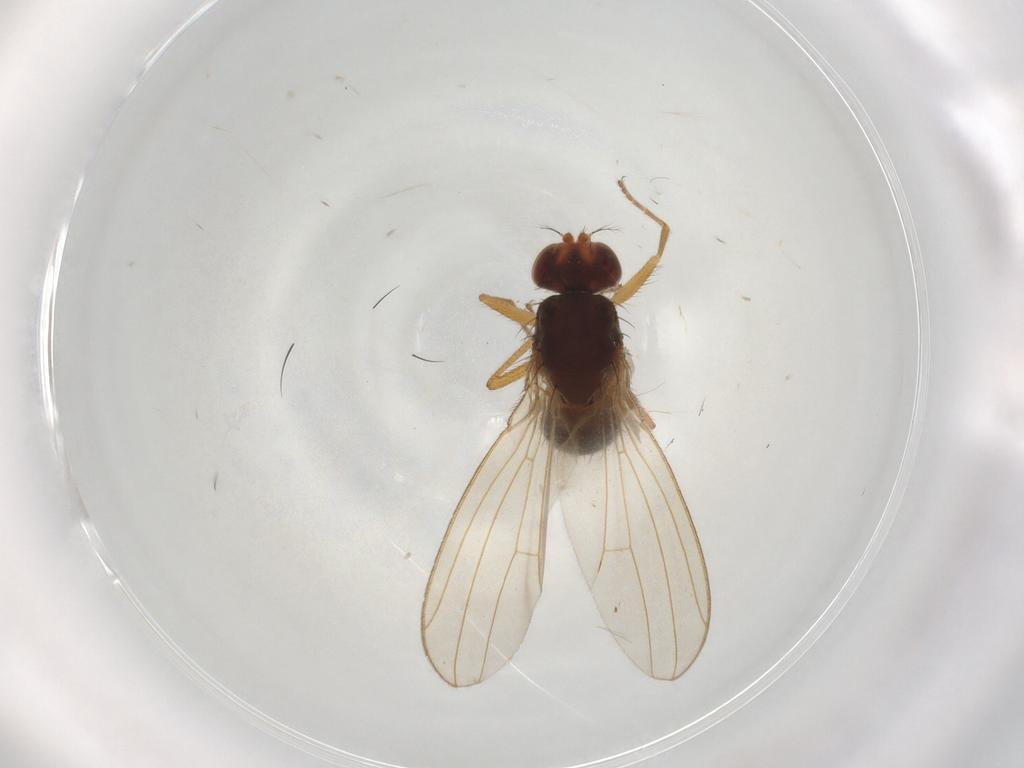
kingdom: Animalia
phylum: Arthropoda
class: Insecta
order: Diptera
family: Drosophilidae
